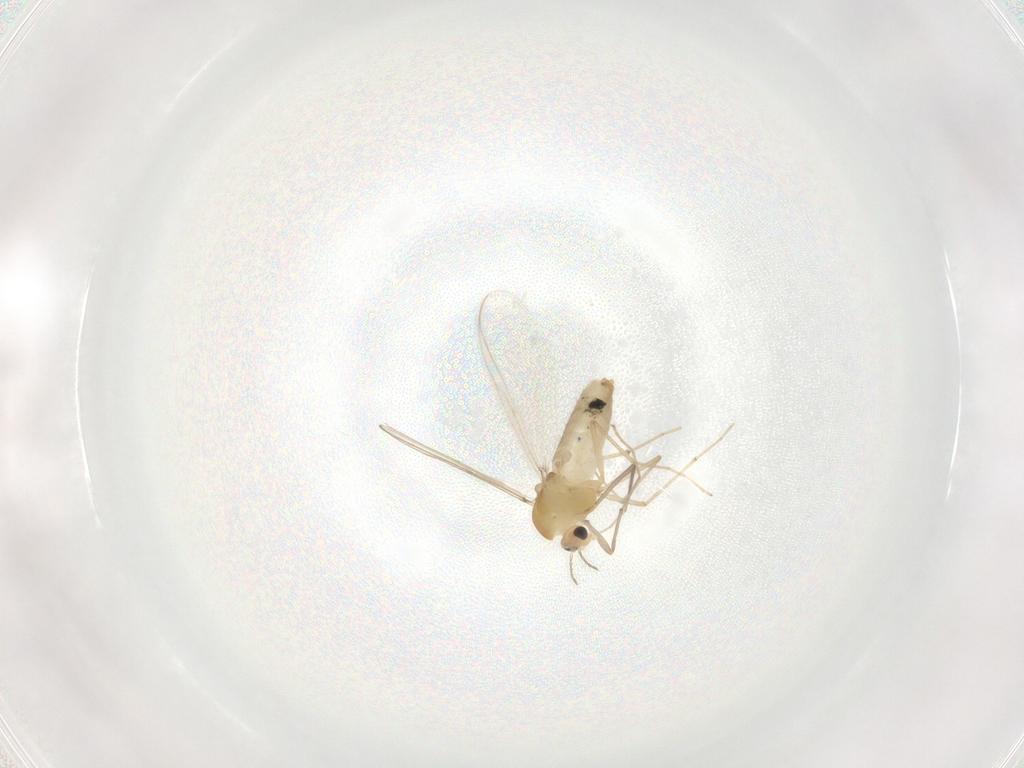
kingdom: Animalia
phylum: Arthropoda
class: Insecta
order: Diptera
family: Chironomidae
